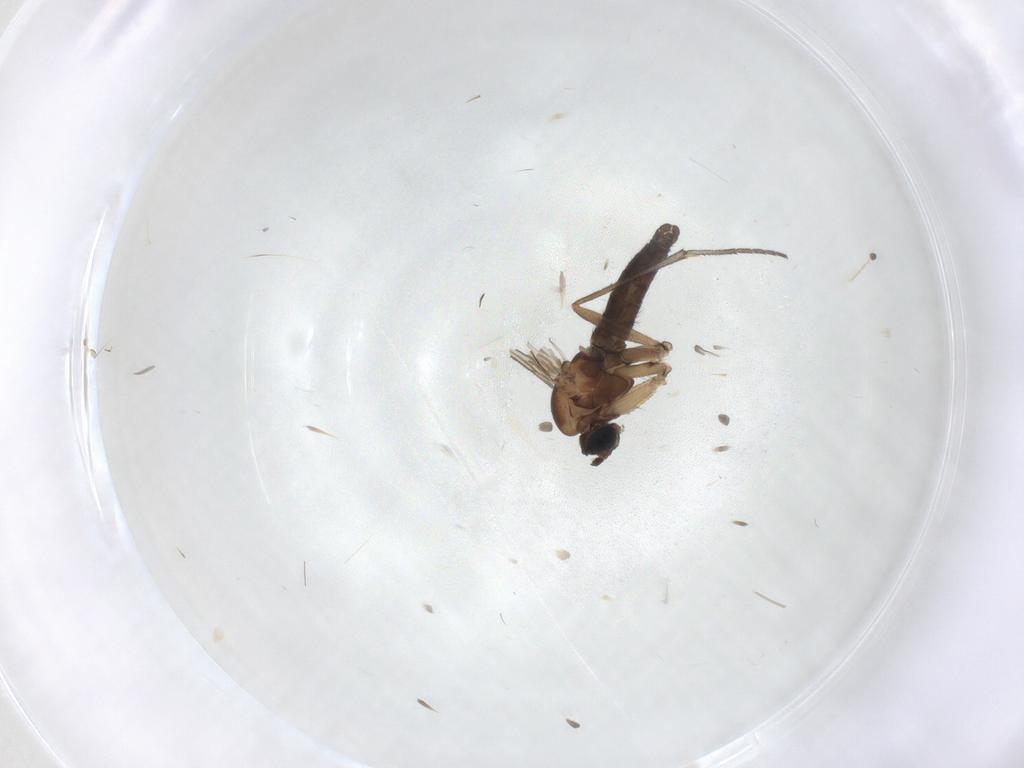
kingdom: Animalia
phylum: Arthropoda
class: Insecta
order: Diptera
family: Sciaridae
